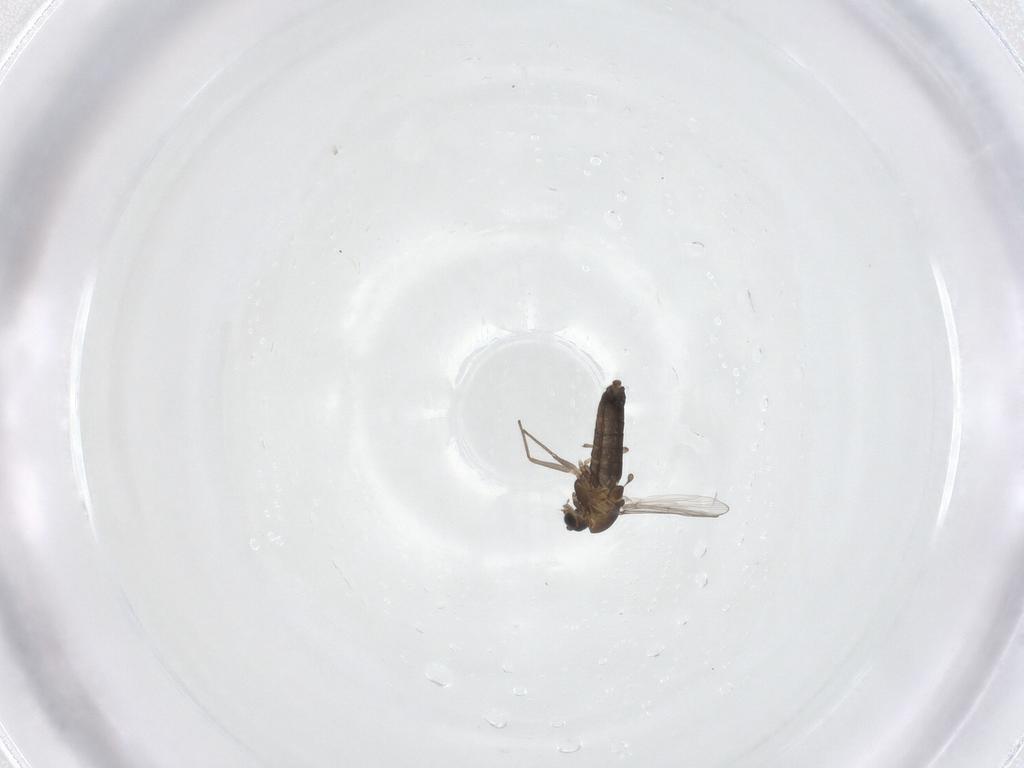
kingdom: Animalia
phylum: Arthropoda
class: Insecta
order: Diptera
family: Chironomidae
